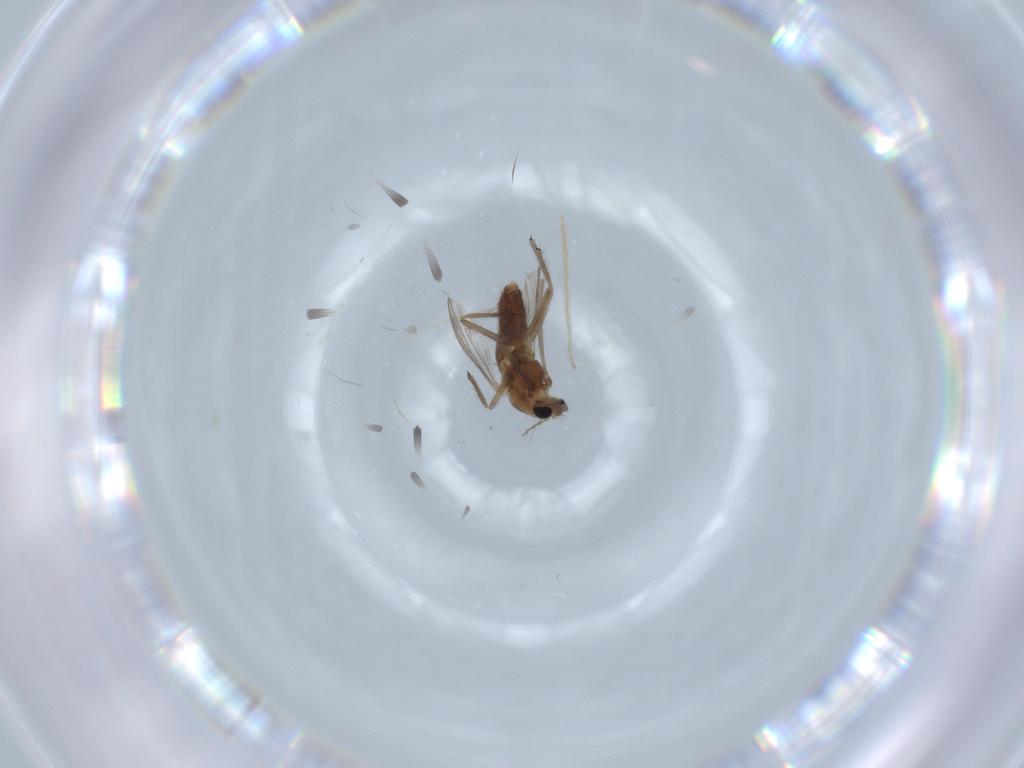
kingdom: Animalia
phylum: Arthropoda
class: Insecta
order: Diptera
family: Chironomidae
